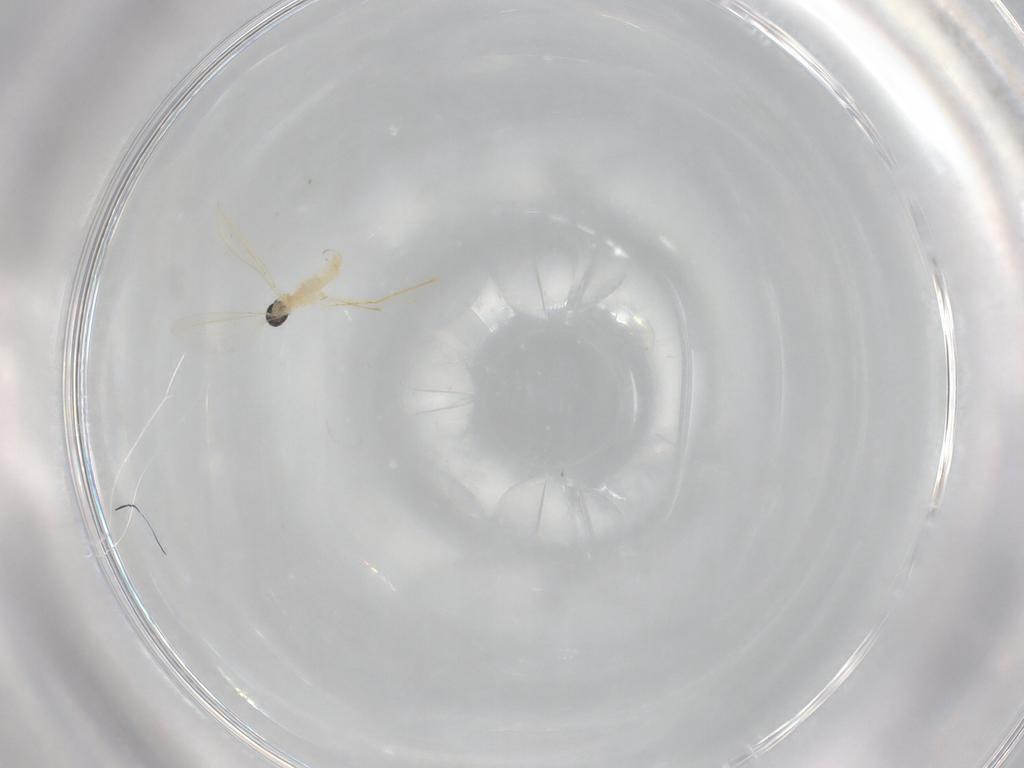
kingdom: Animalia
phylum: Arthropoda
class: Insecta
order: Diptera
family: Cecidomyiidae
